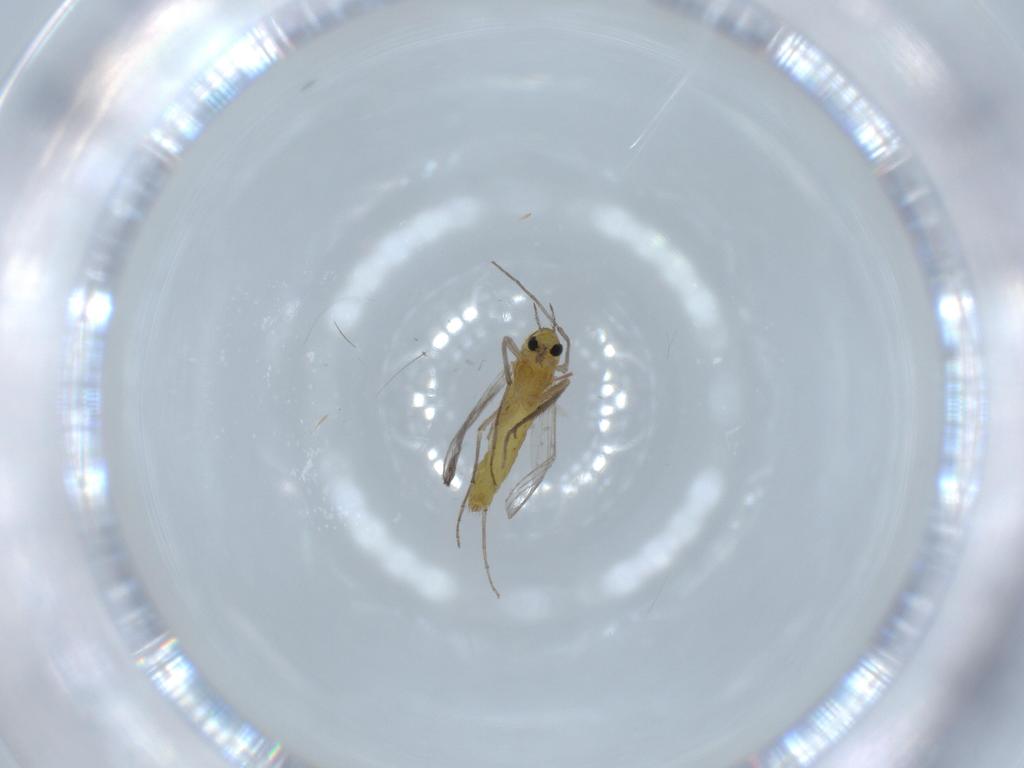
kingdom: Animalia
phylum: Arthropoda
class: Insecta
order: Diptera
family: Chironomidae
